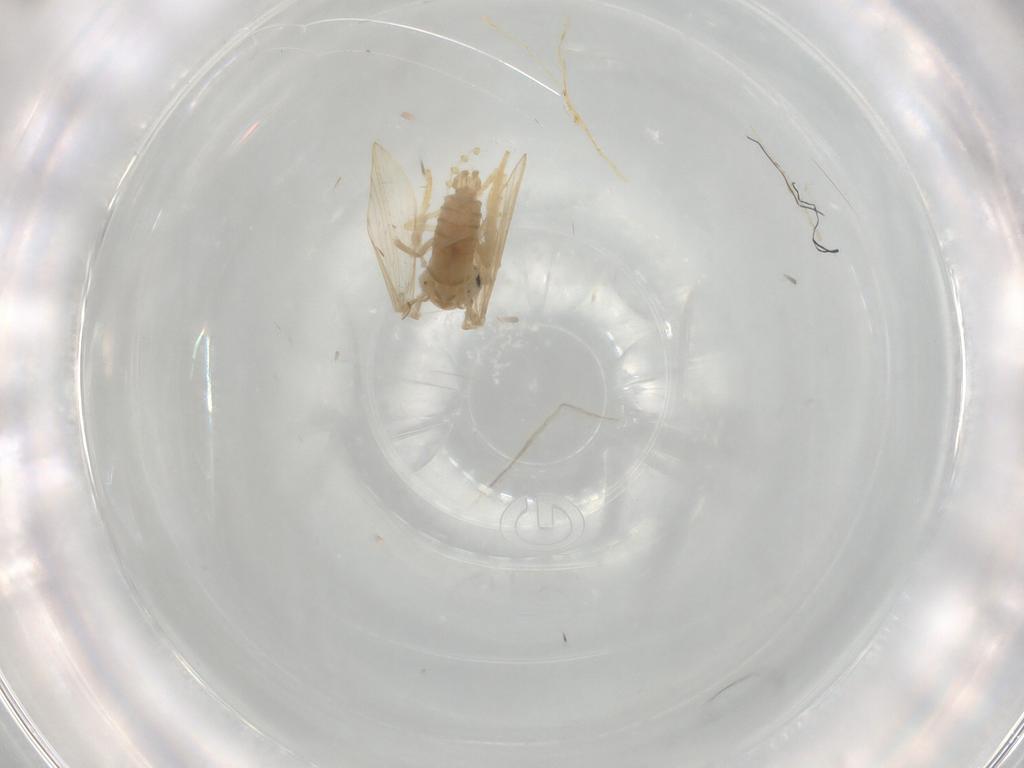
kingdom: Animalia
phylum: Arthropoda
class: Insecta
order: Diptera
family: Psychodidae
